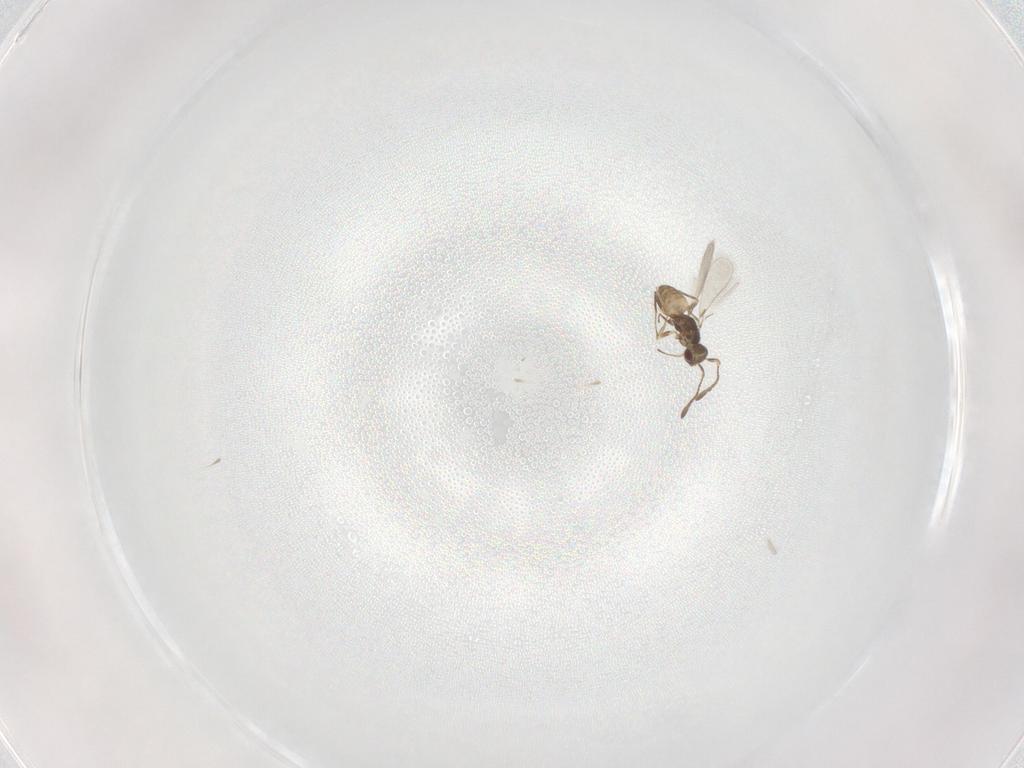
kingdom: Animalia
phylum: Arthropoda
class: Insecta
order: Hymenoptera
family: Mymaridae
